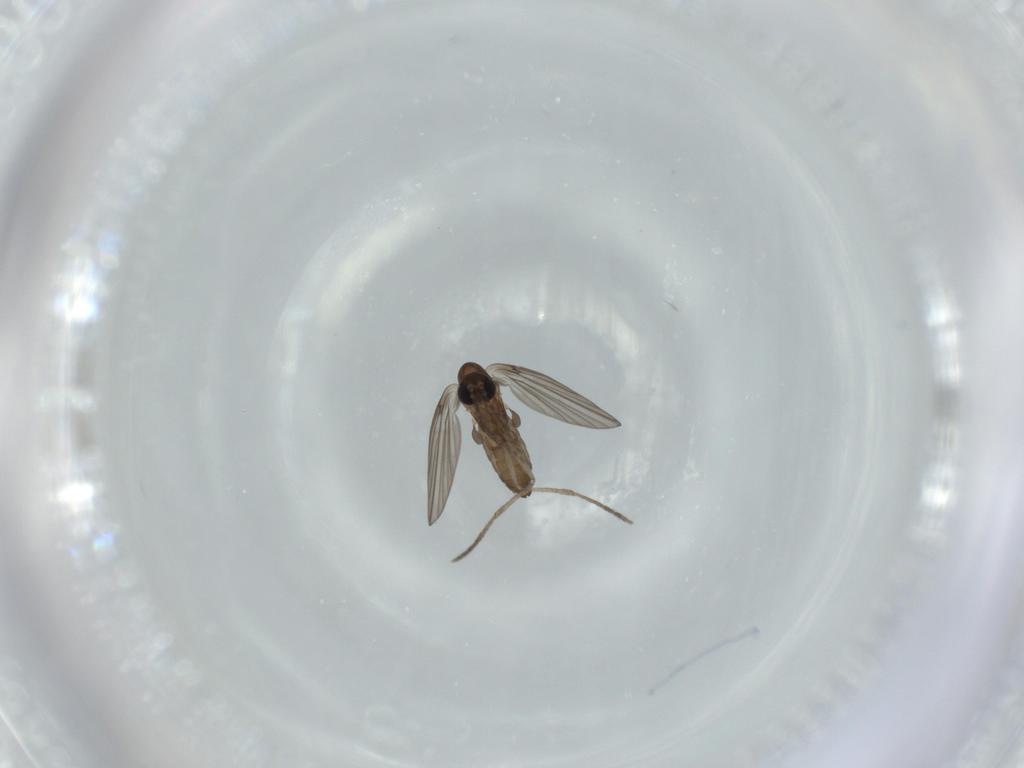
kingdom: Animalia
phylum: Arthropoda
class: Insecta
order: Diptera
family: Psychodidae
